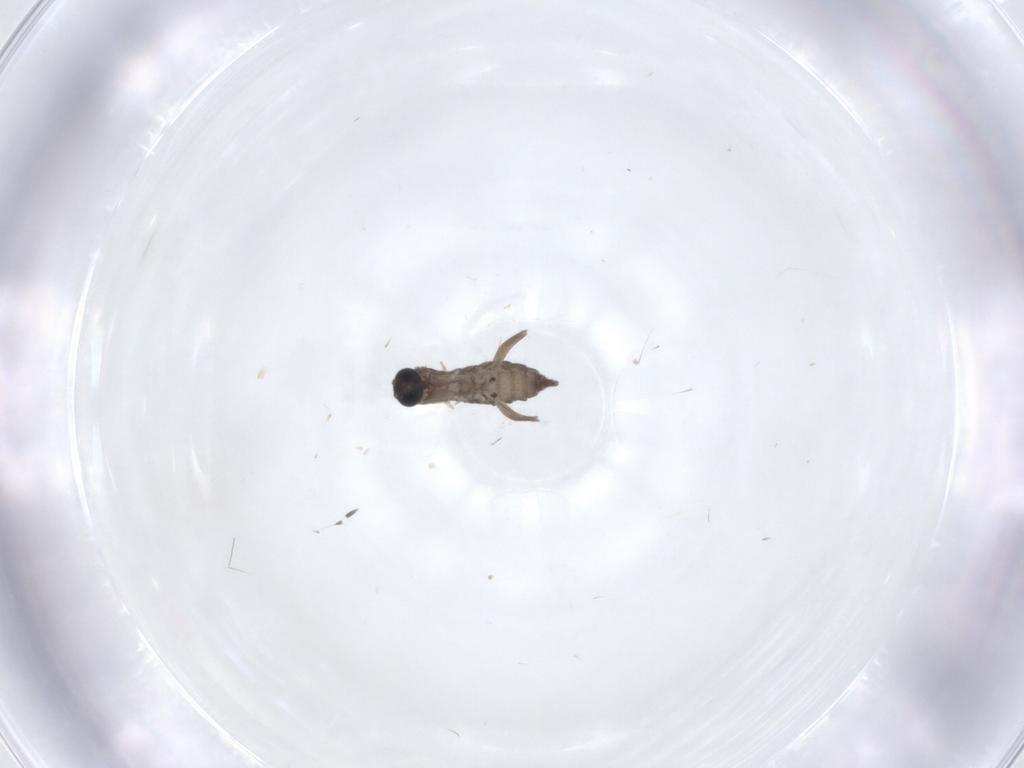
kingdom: Animalia
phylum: Arthropoda
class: Insecta
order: Diptera
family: Sciaridae
